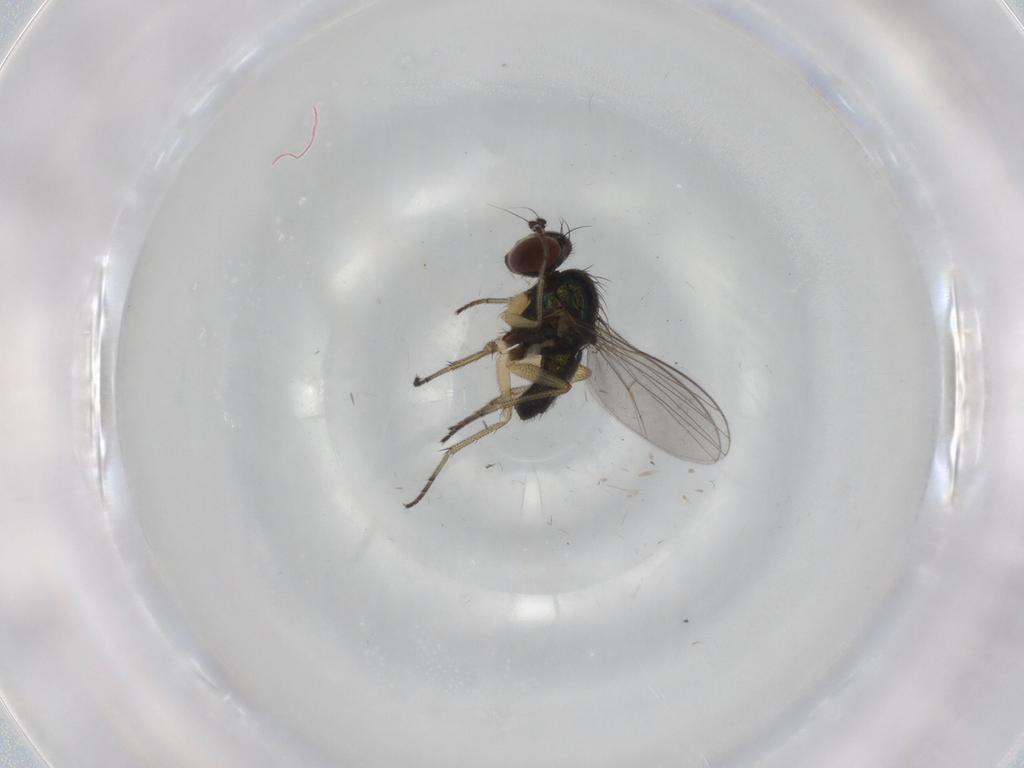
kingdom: Animalia
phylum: Arthropoda
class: Insecta
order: Diptera
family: Dolichopodidae
